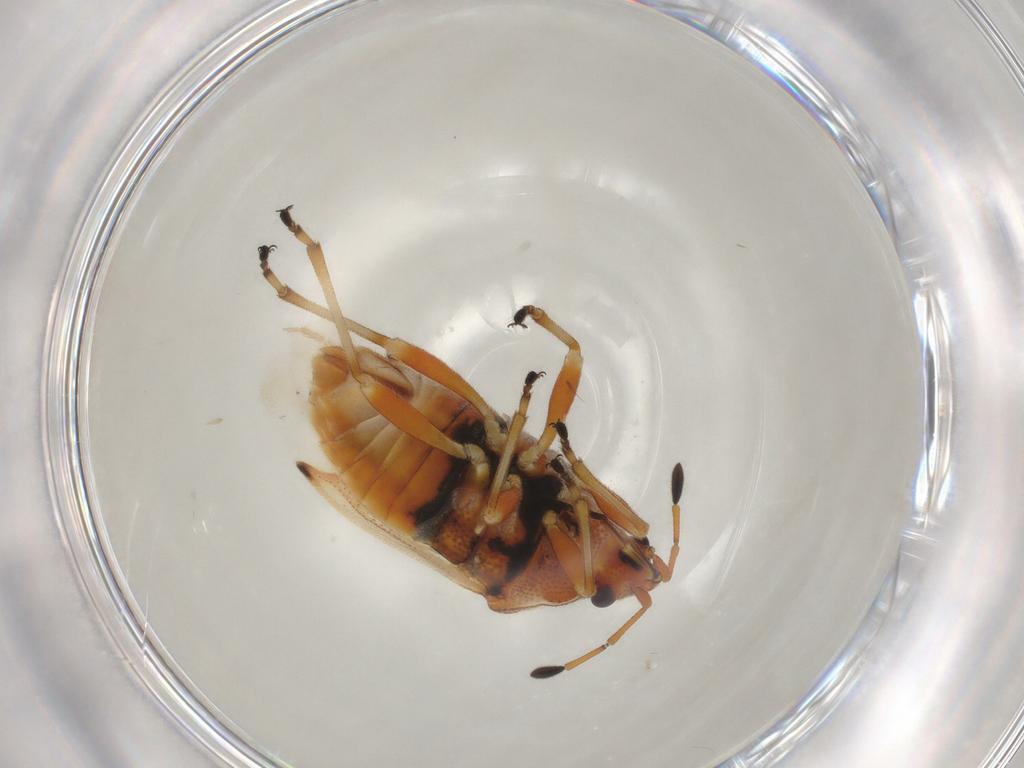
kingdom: Animalia
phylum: Arthropoda
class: Insecta
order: Hemiptera
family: Lygaeidae
